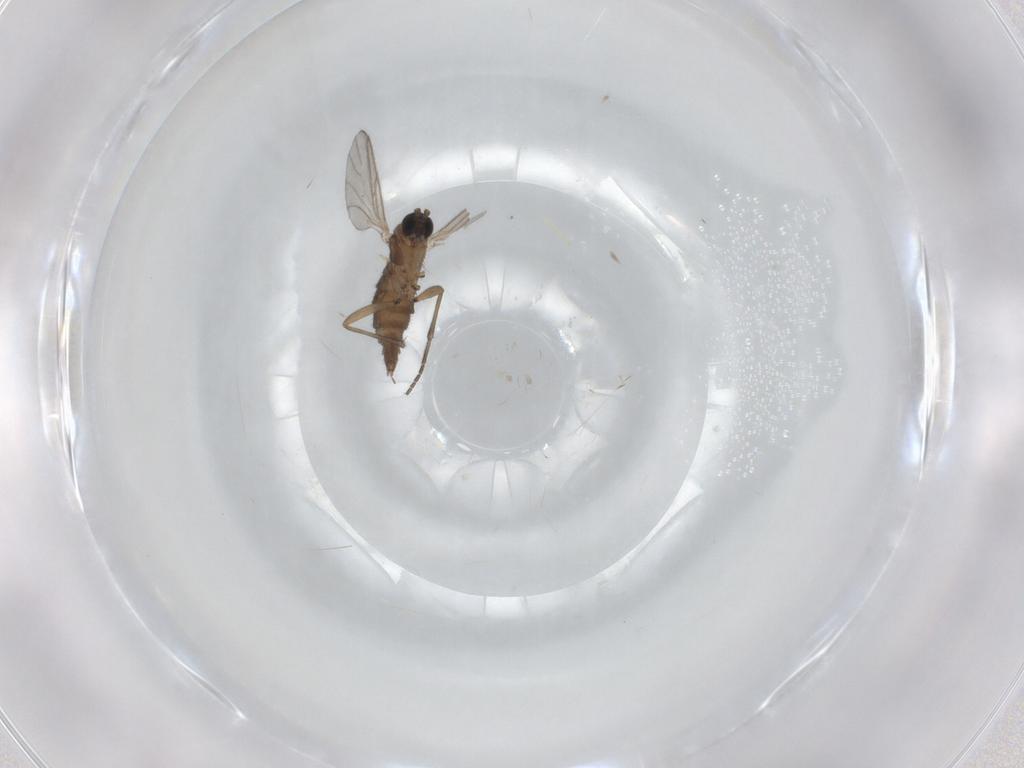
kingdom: Animalia
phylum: Arthropoda
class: Insecta
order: Diptera
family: Mycetophilidae
